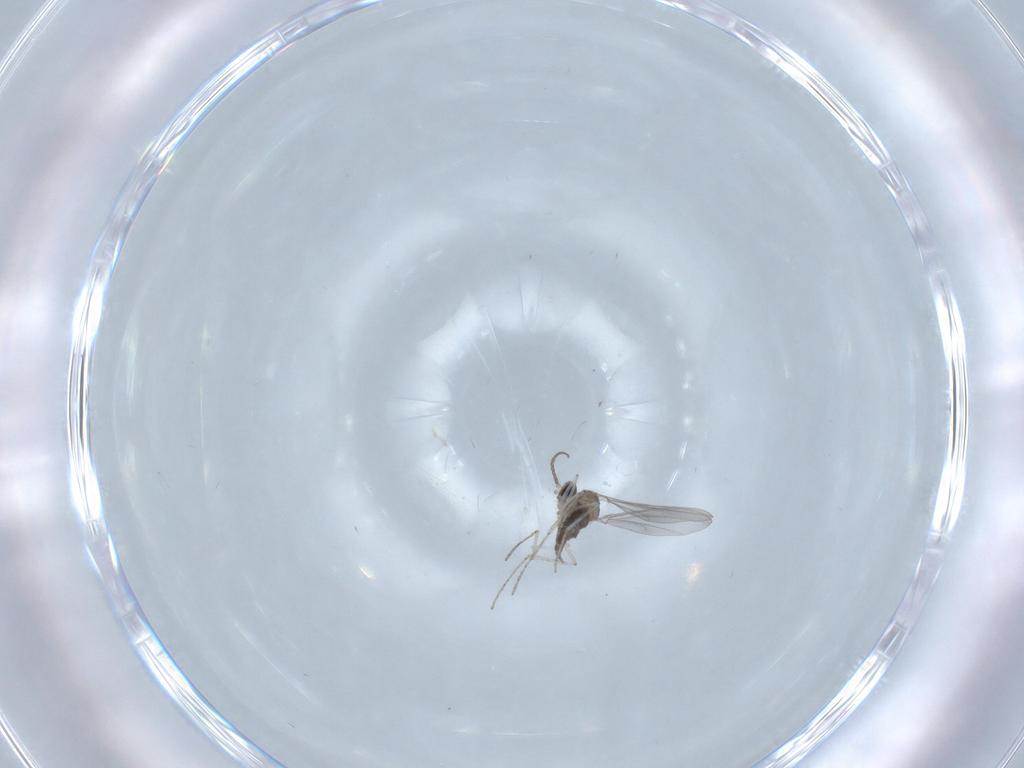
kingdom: Animalia
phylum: Arthropoda
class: Insecta
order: Diptera
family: Cecidomyiidae
